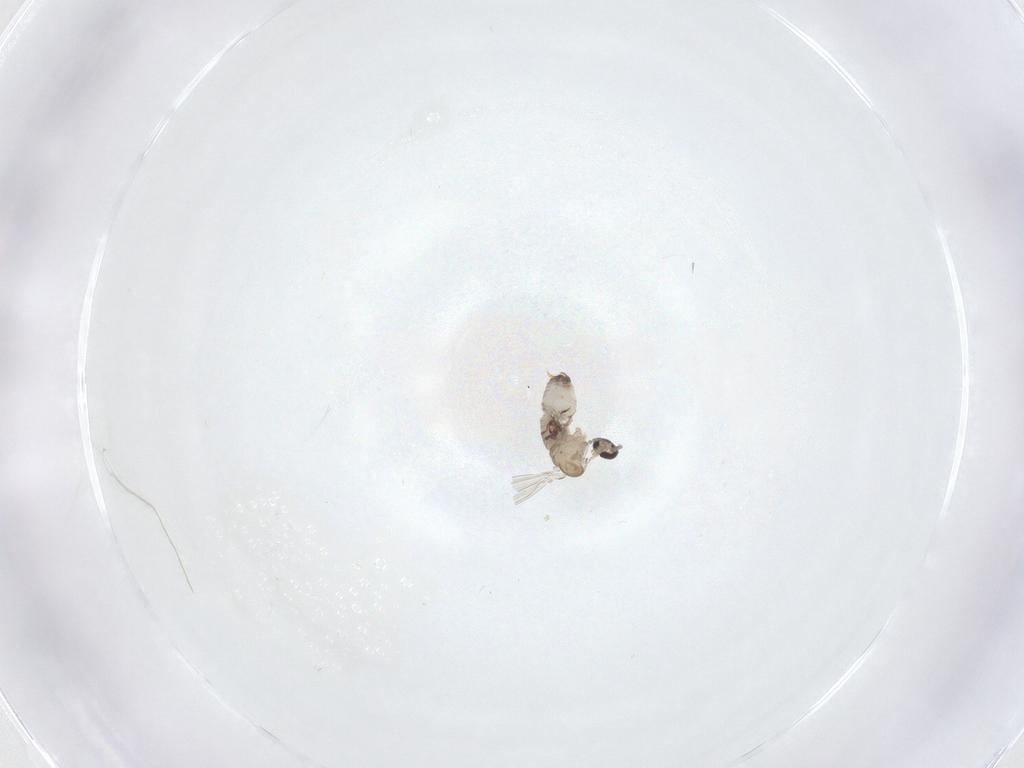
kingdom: Animalia
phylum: Arthropoda
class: Insecta
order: Diptera
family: Psychodidae
